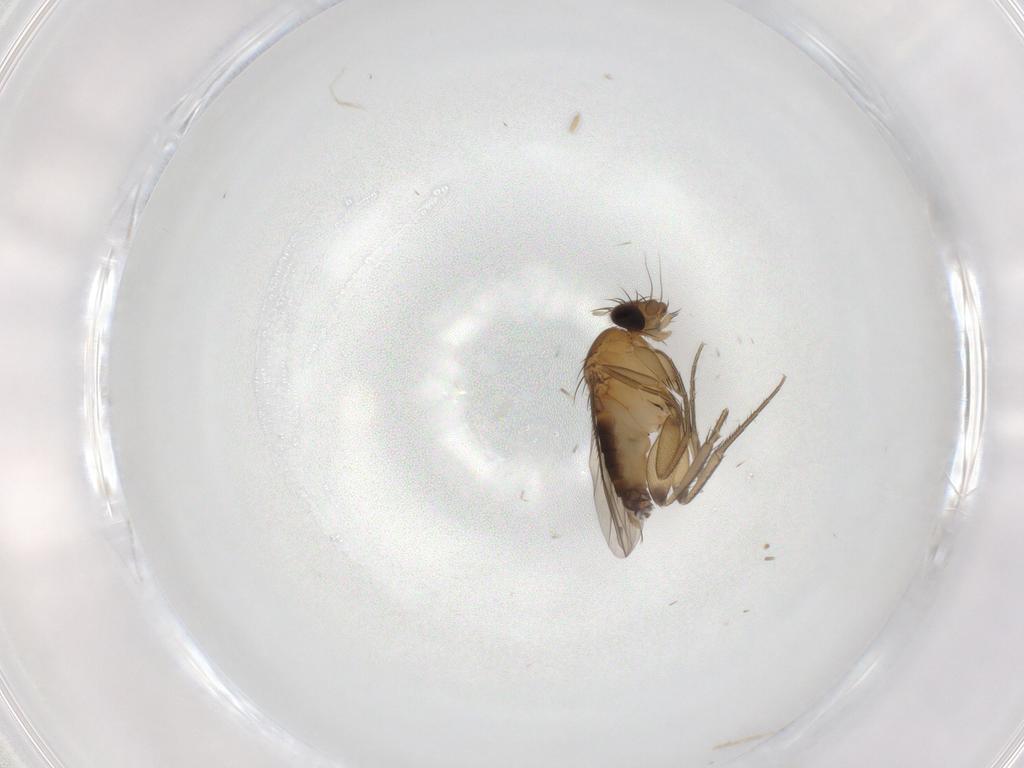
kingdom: Animalia
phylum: Arthropoda
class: Insecta
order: Diptera
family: Phoridae
